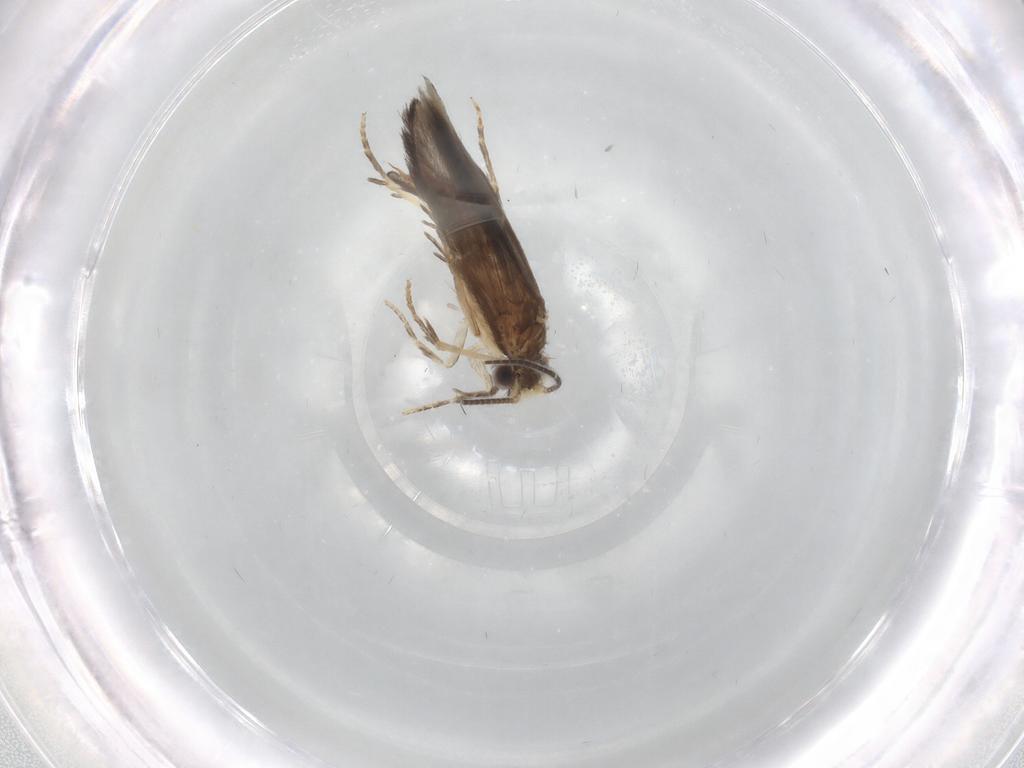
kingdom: Animalia
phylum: Arthropoda
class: Insecta
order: Trichoptera
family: Hydroptilidae
